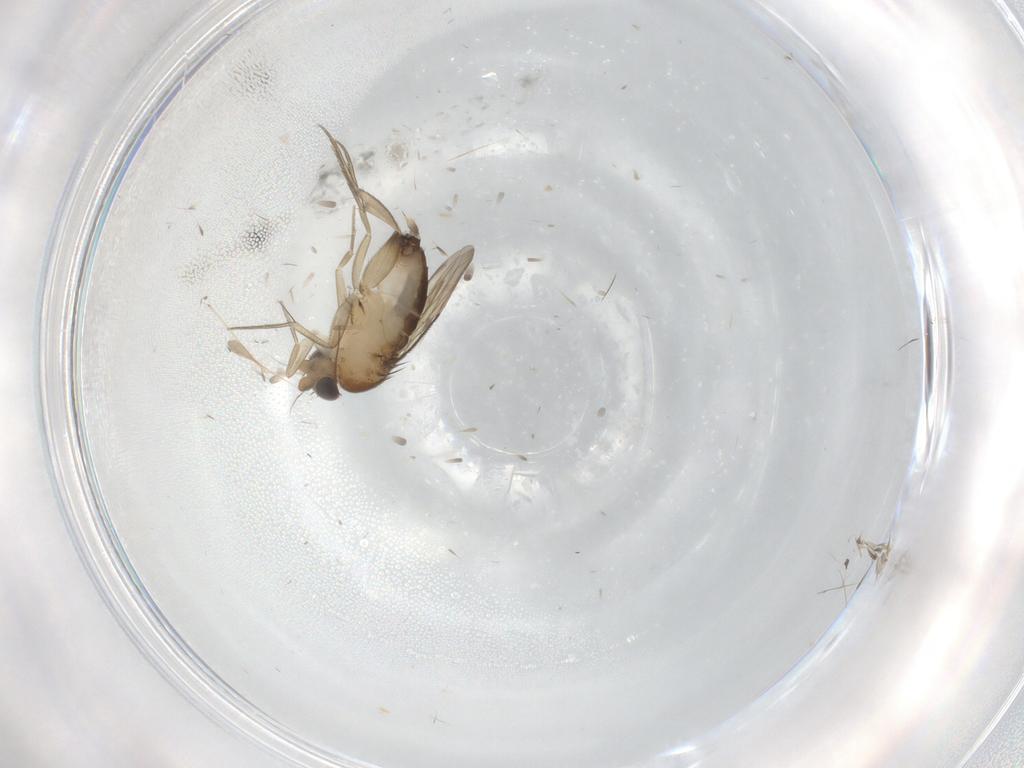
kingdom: Animalia
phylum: Arthropoda
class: Insecta
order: Diptera
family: Phoridae
